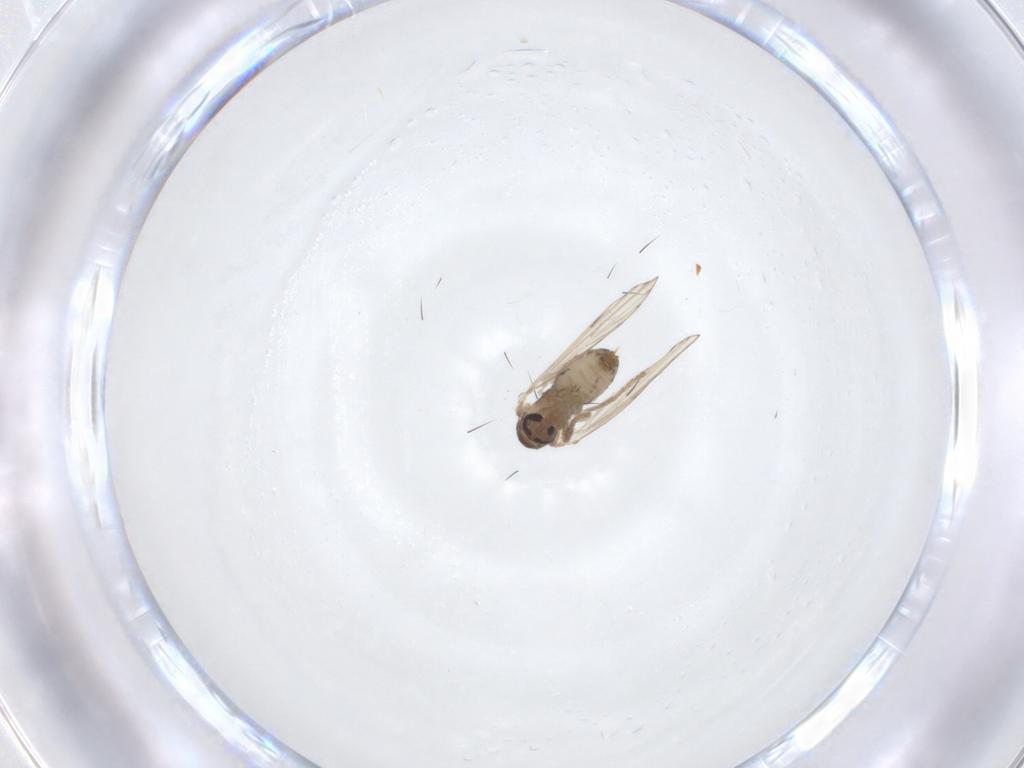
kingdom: Animalia
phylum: Arthropoda
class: Insecta
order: Diptera
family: Psychodidae
